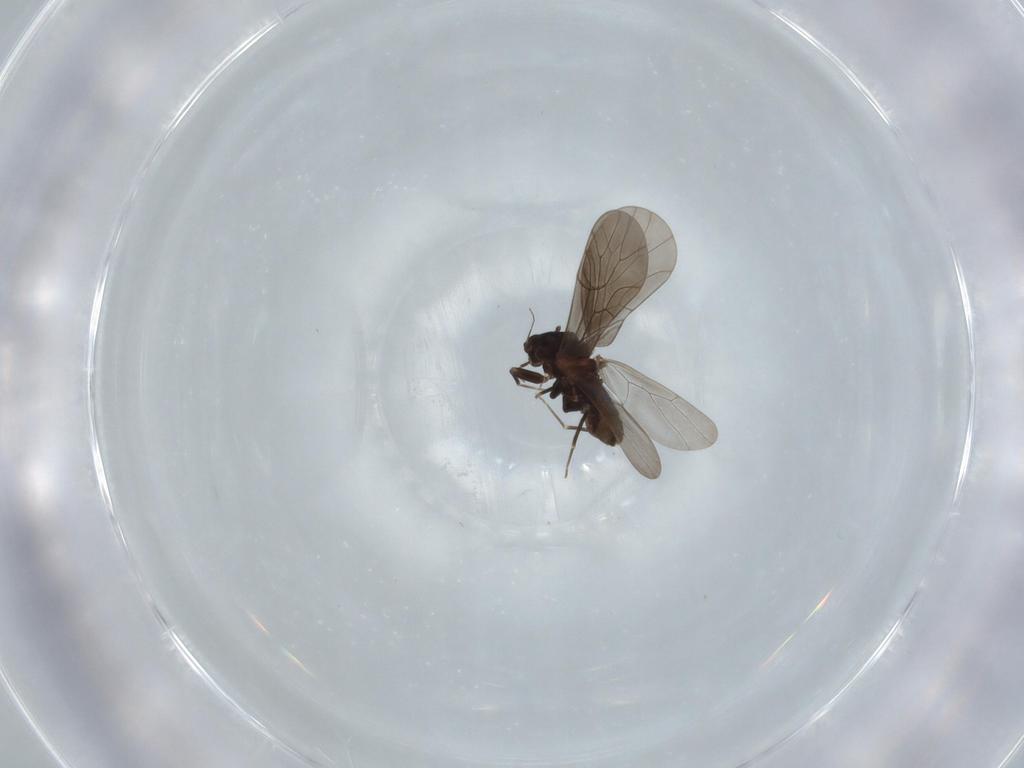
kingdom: Animalia
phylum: Arthropoda
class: Insecta
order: Psocodea
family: Lepidopsocidae
